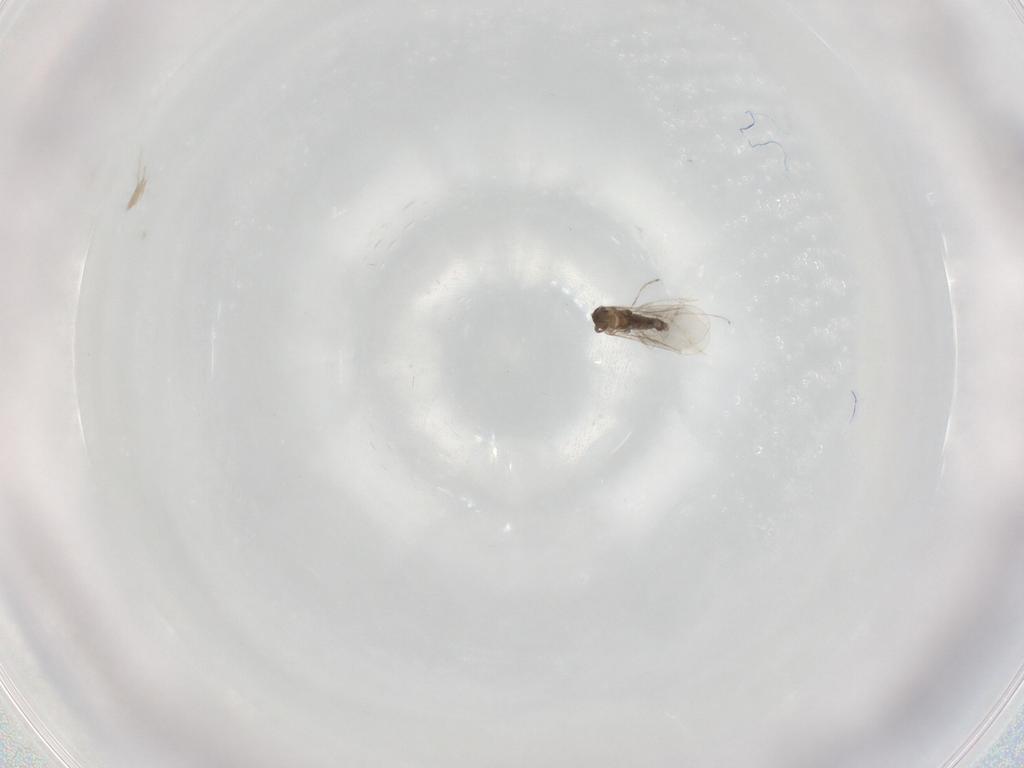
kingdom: Animalia
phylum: Arthropoda
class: Insecta
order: Diptera
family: Cecidomyiidae
